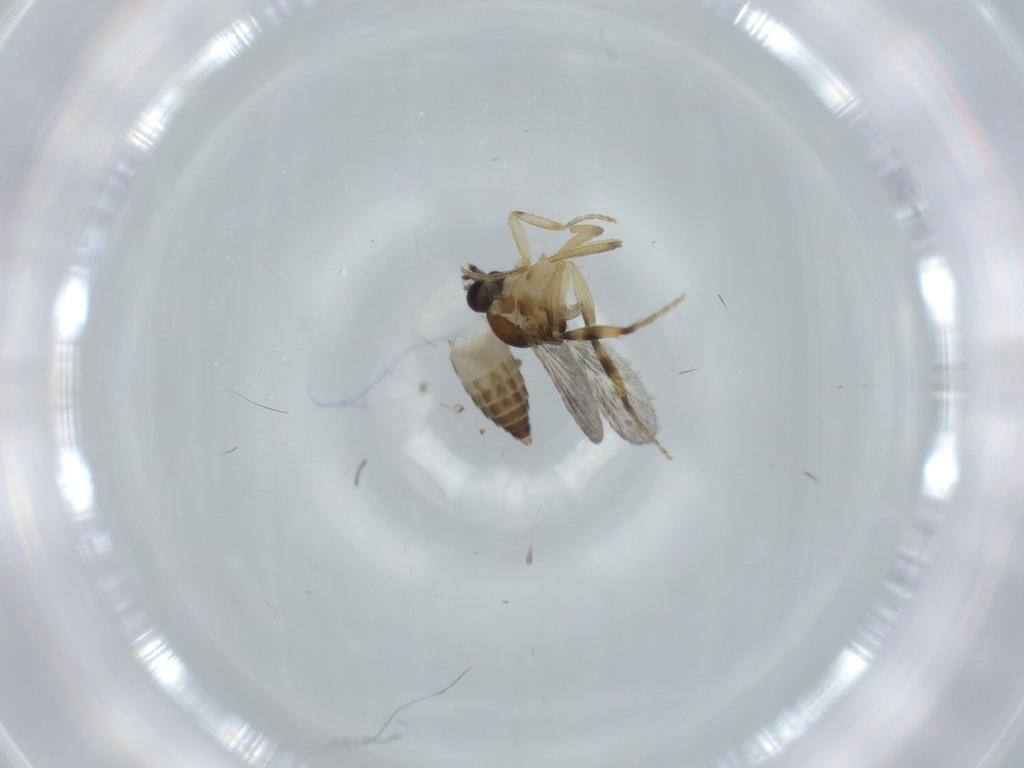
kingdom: Animalia
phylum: Arthropoda
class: Insecta
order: Diptera
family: Ceratopogonidae
